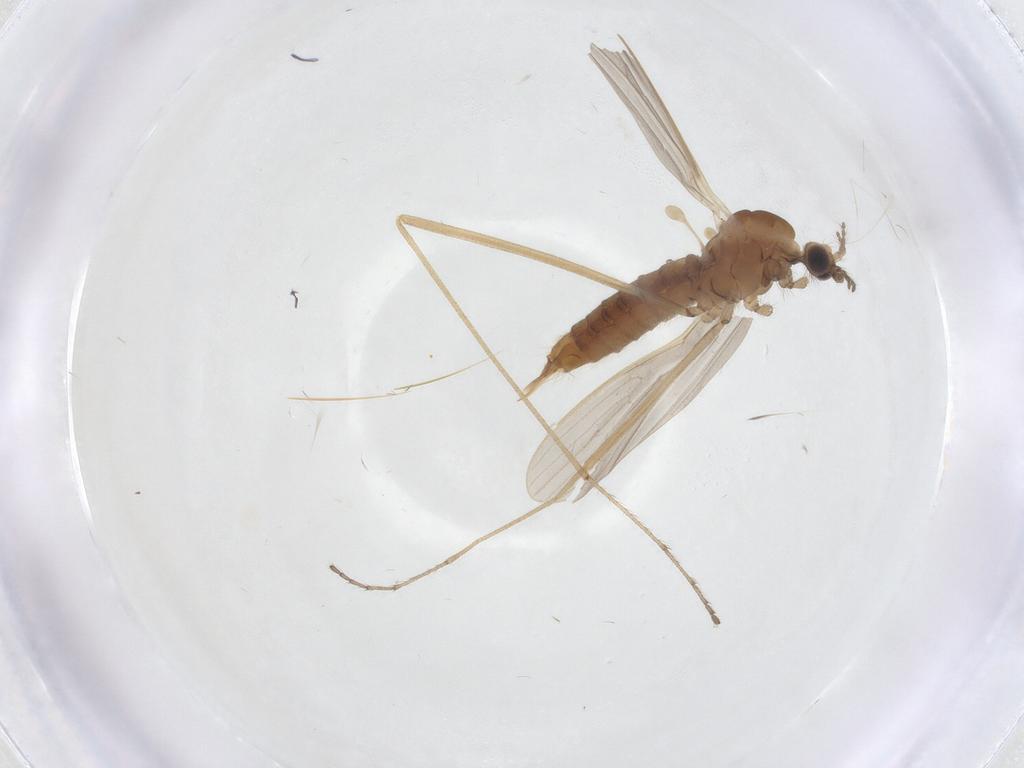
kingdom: Animalia
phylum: Arthropoda
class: Insecta
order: Diptera
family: Limoniidae
